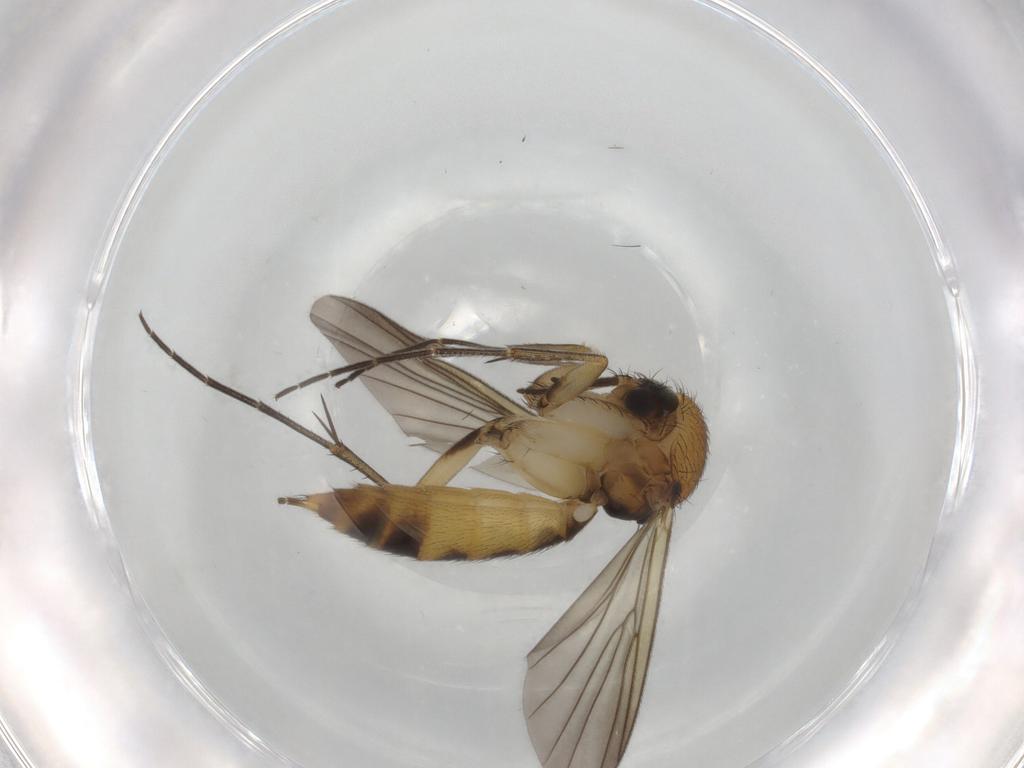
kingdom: Animalia
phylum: Arthropoda
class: Insecta
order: Diptera
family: Mycetophilidae
